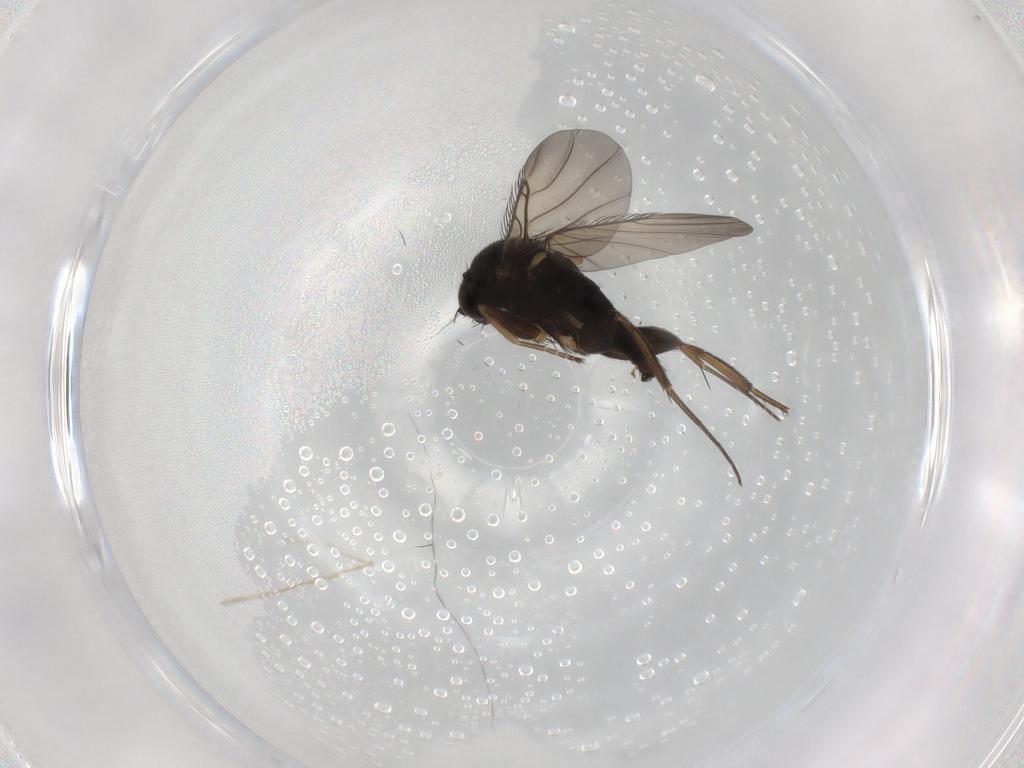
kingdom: Animalia
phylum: Arthropoda
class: Insecta
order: Diptera
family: Phoridae
